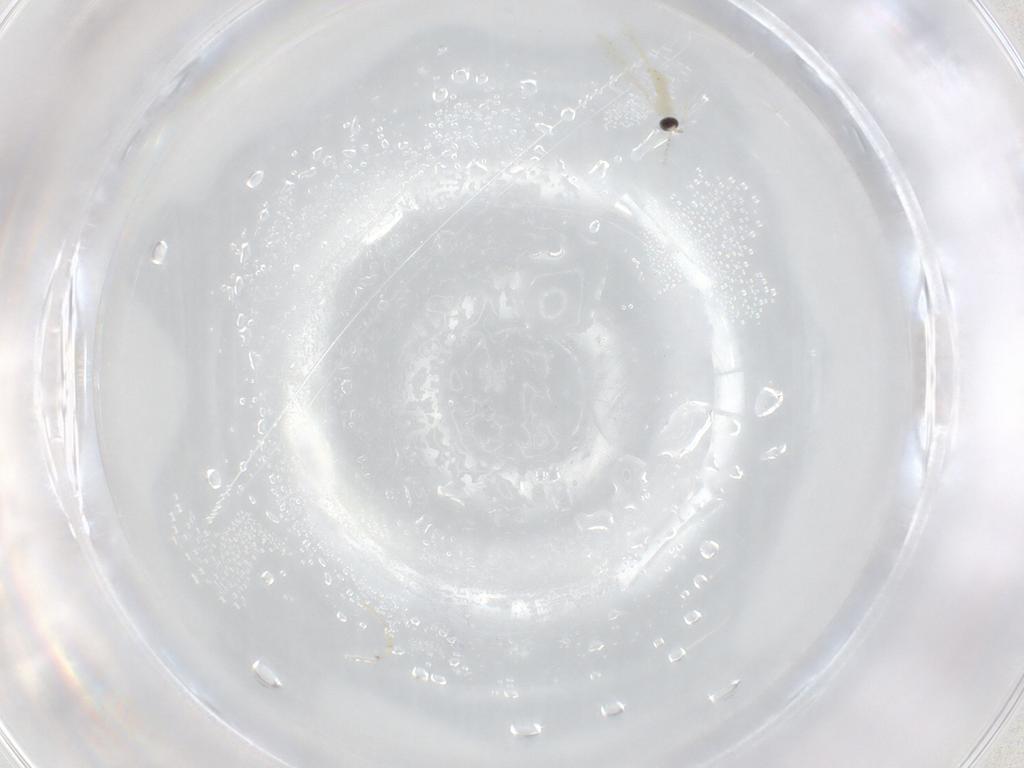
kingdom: Animalia
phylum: Arthropoda
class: Insecta
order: Diptera
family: Cecidomyiidae
